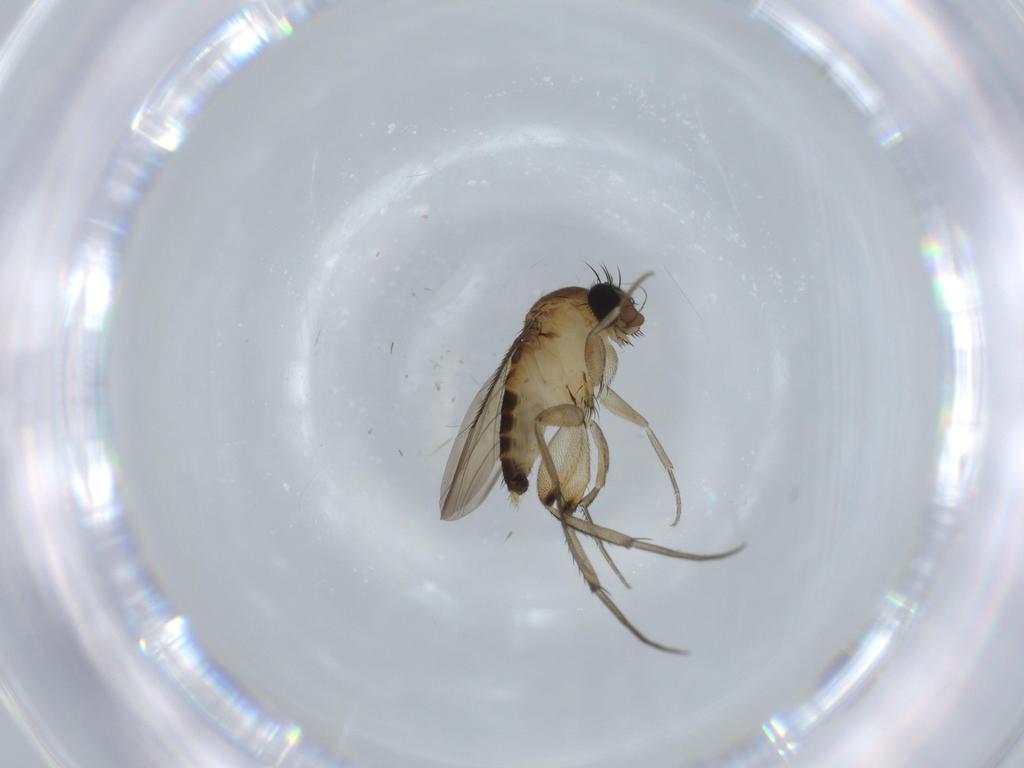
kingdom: Animalia
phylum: Arthropoda
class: Insecta
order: Diptera
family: Phoridae
